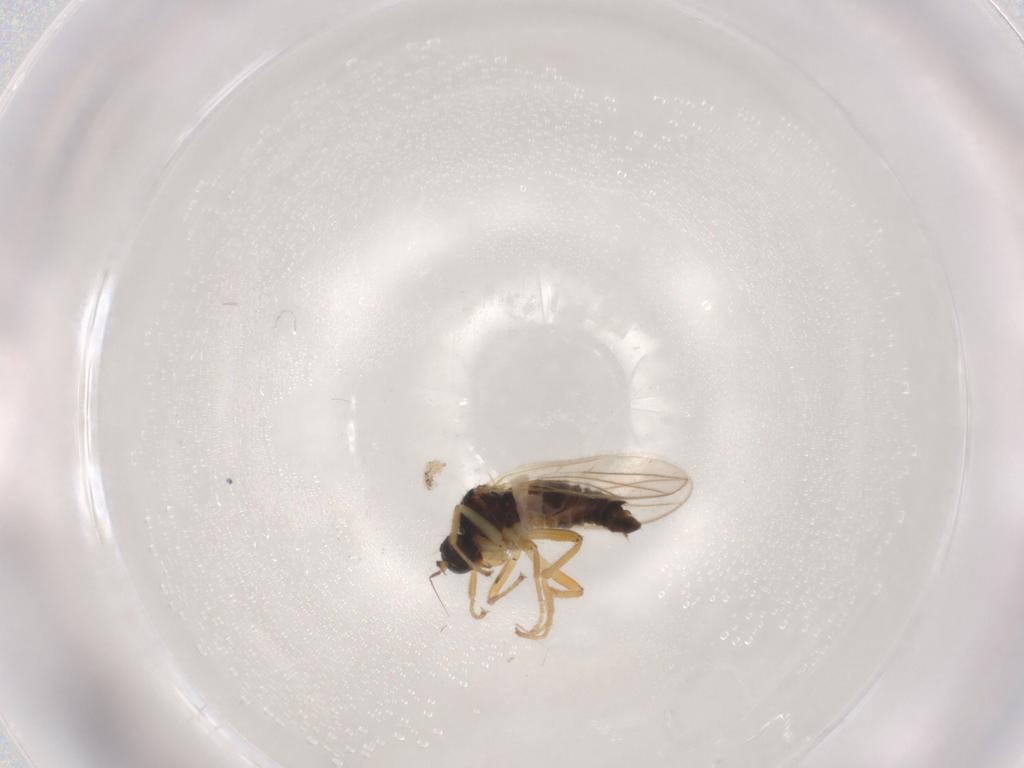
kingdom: Animalia
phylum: Arthropoda
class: Insecta
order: Diptera
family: Hybotidae
